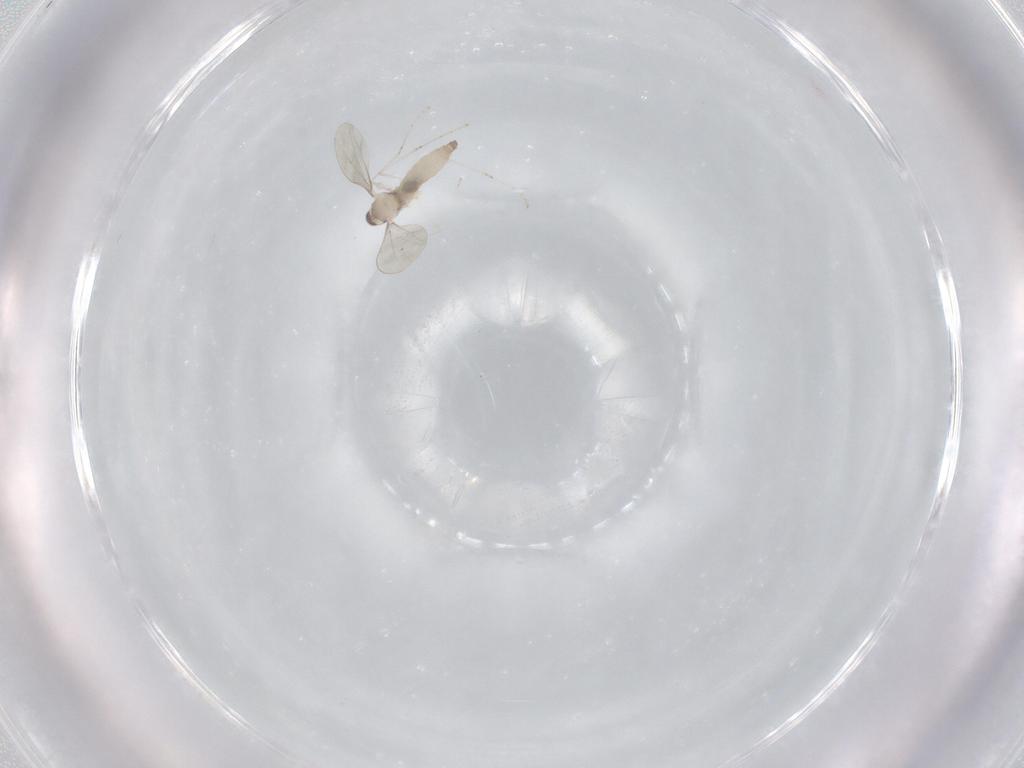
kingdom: Animalia
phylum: Arthropoda
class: Insecta
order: Diptera
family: Cecidomyiidae
